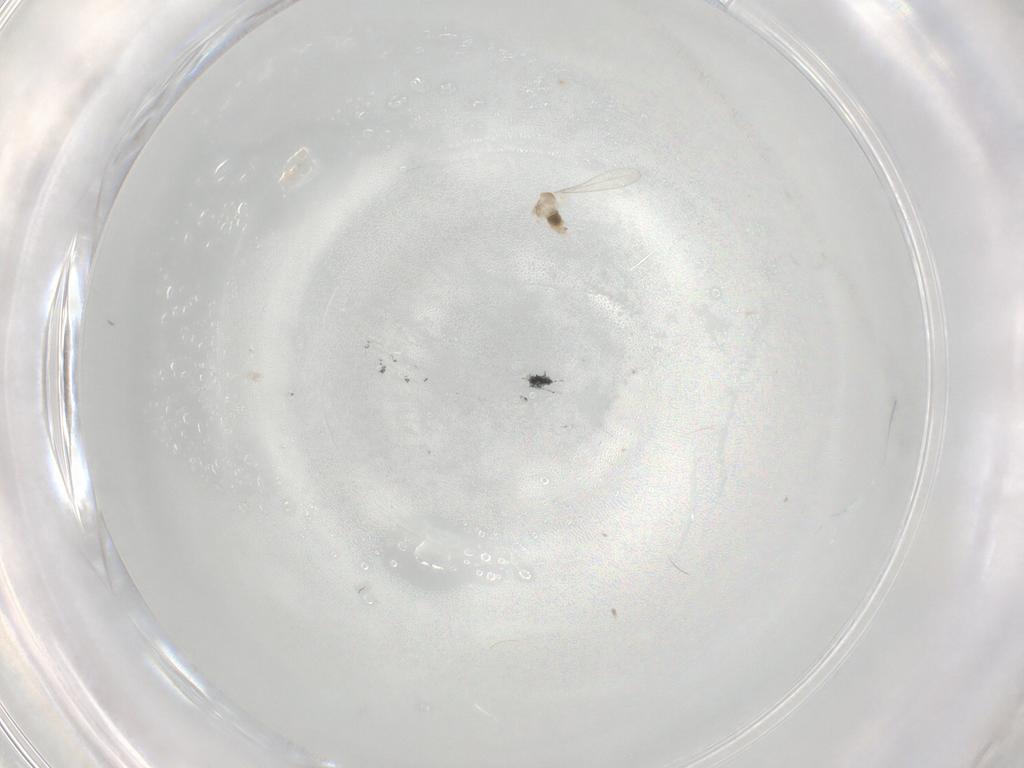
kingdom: Animalia
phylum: Arthropoda
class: Insecta
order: Diptera
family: Cecidomyiidae
